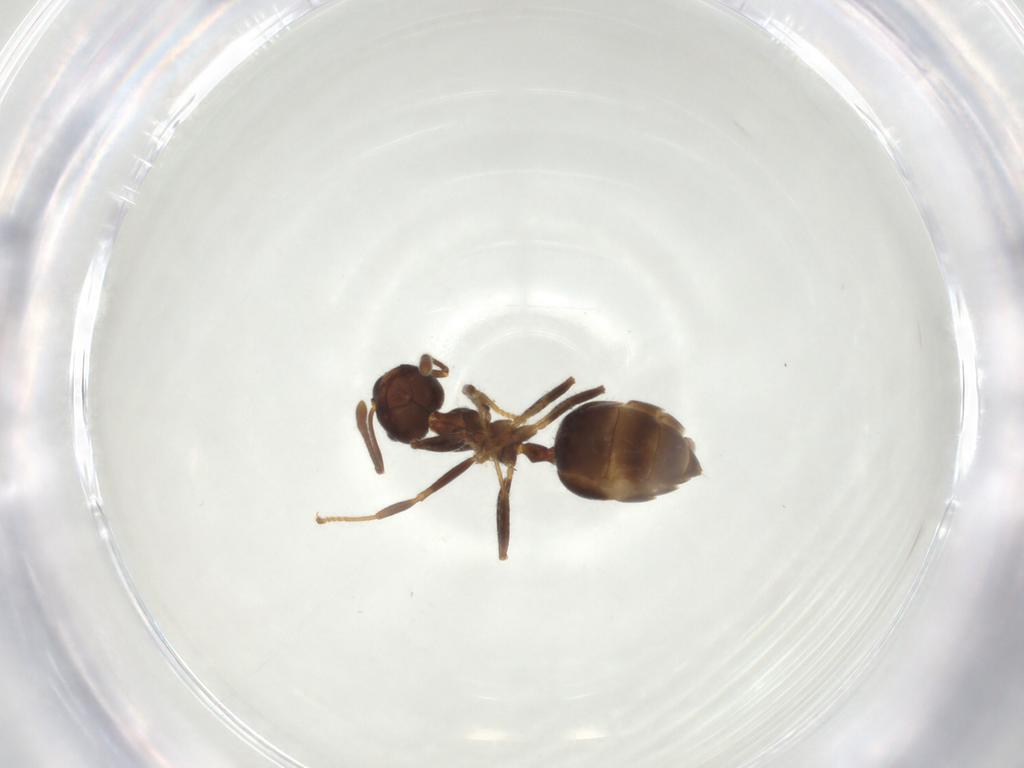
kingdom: Animalia
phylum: Arthropoda
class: Insecta
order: Hymenoptera
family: Formicidae
